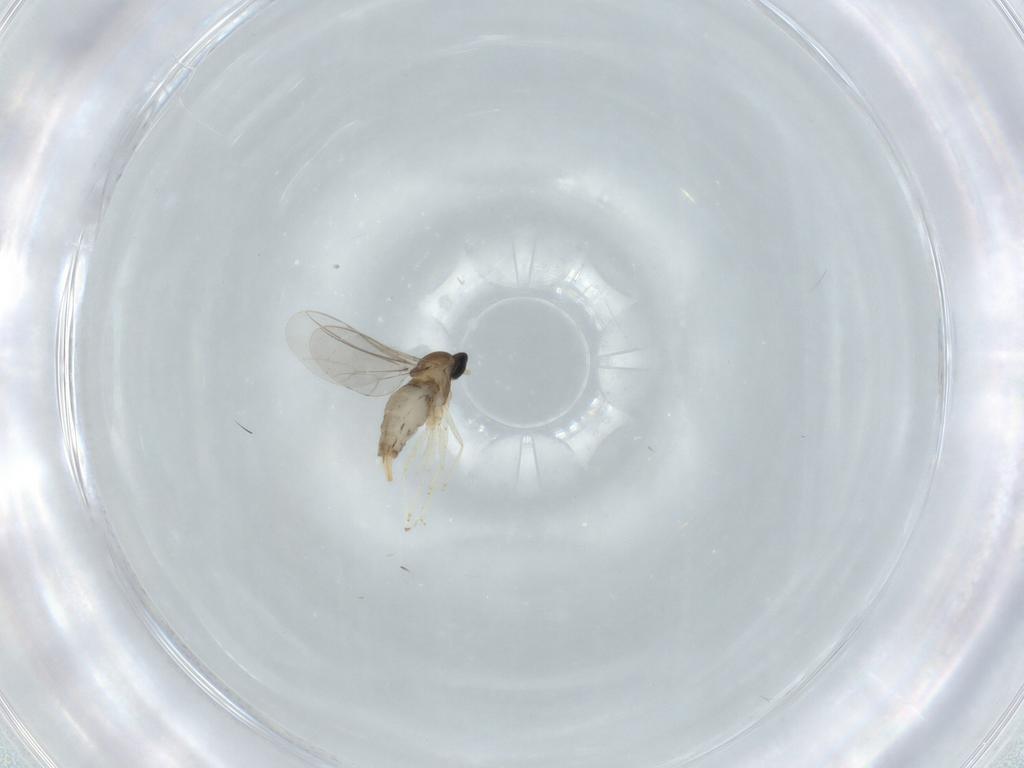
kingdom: Animalia
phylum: Arthropoda
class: Insecta
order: Diptera
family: Cecidomyiidae
